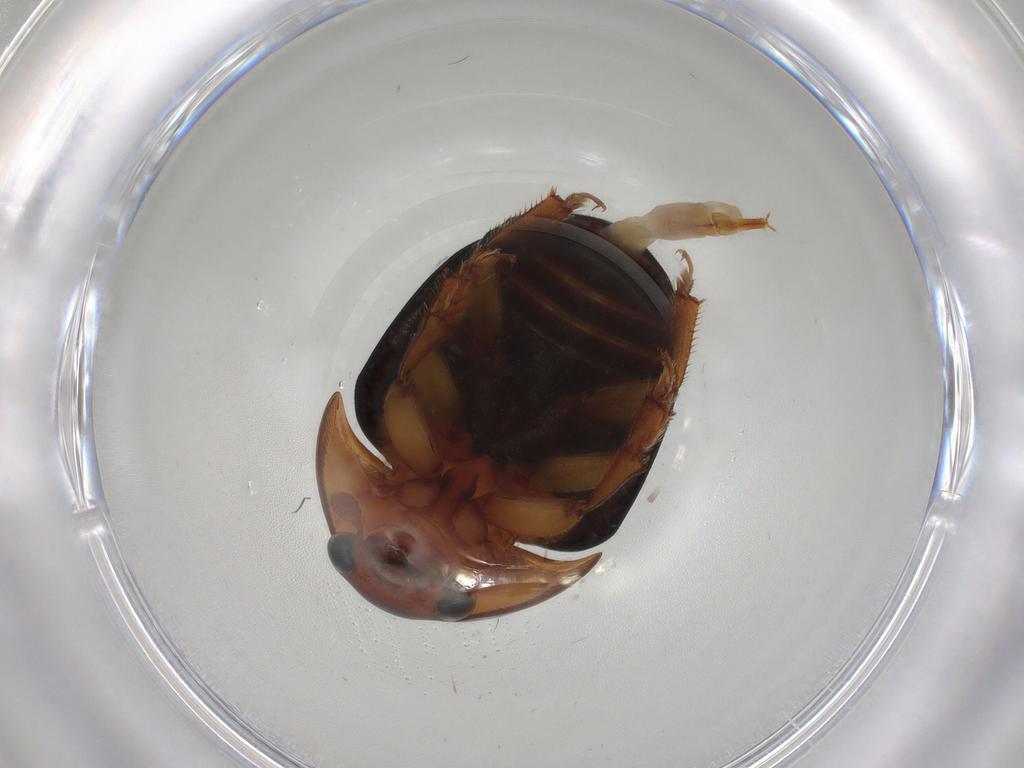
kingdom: Animalia
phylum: Arthropoda
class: Insecta
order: Coleoptera
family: Nitidulidae
